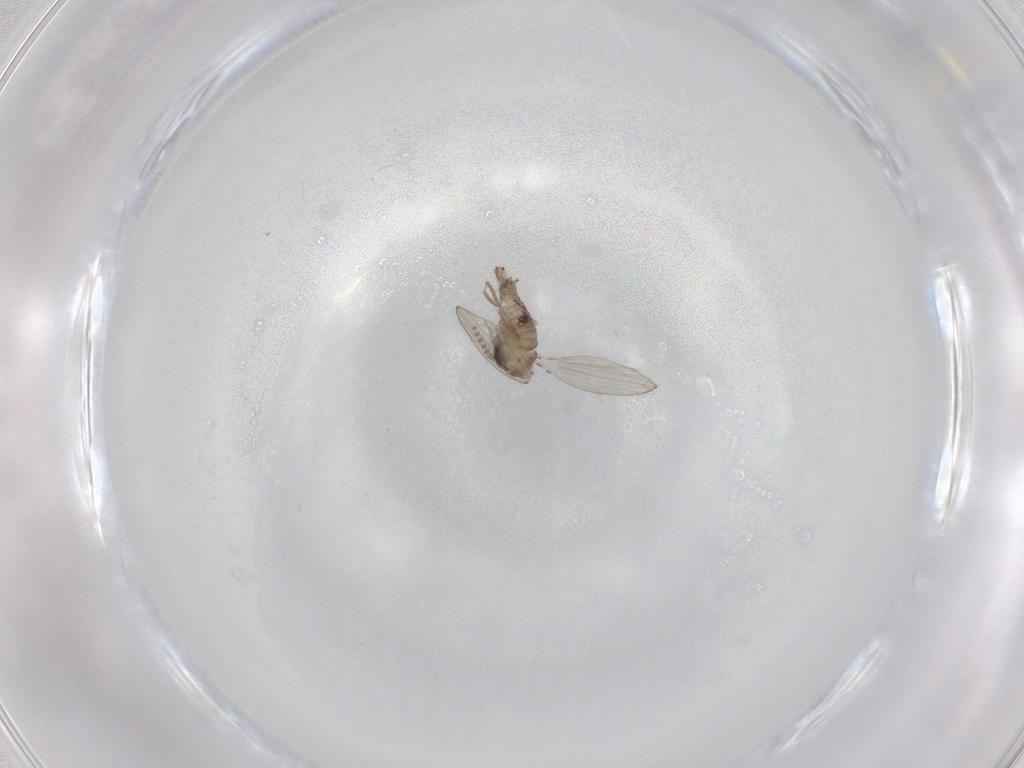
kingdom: Animalia
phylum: Arthropoda
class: Insecta
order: Diptera
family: Psychodidae
